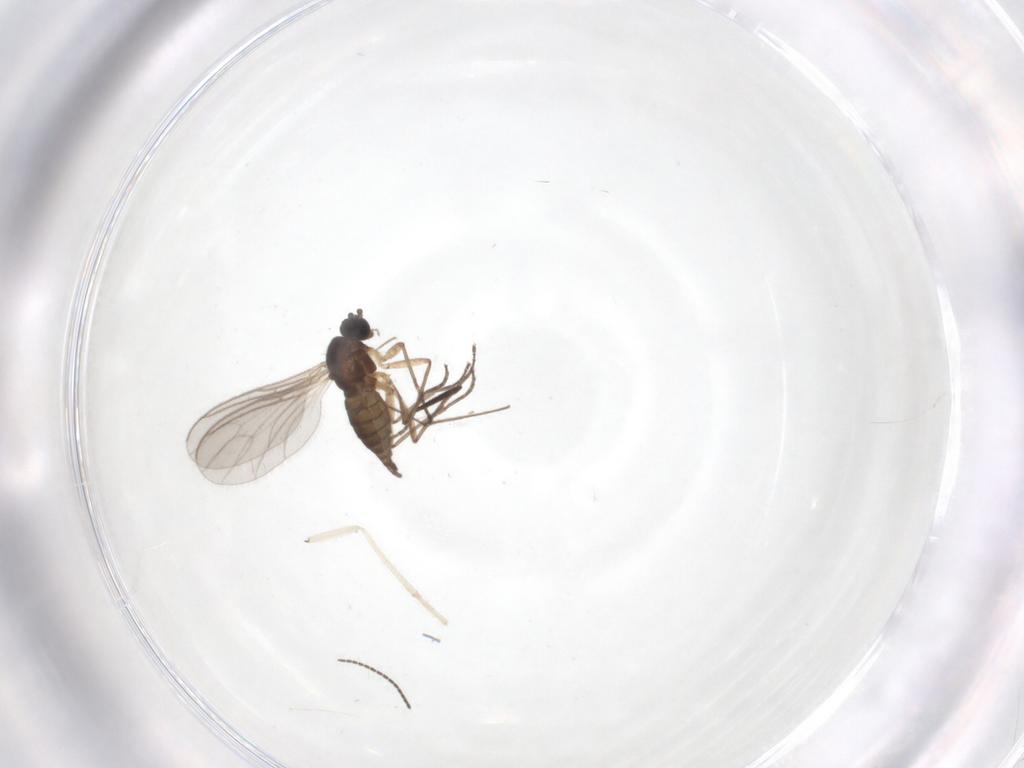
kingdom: Animalia
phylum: Arthropoda
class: Insecta
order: Diptera
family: Sciaridae
